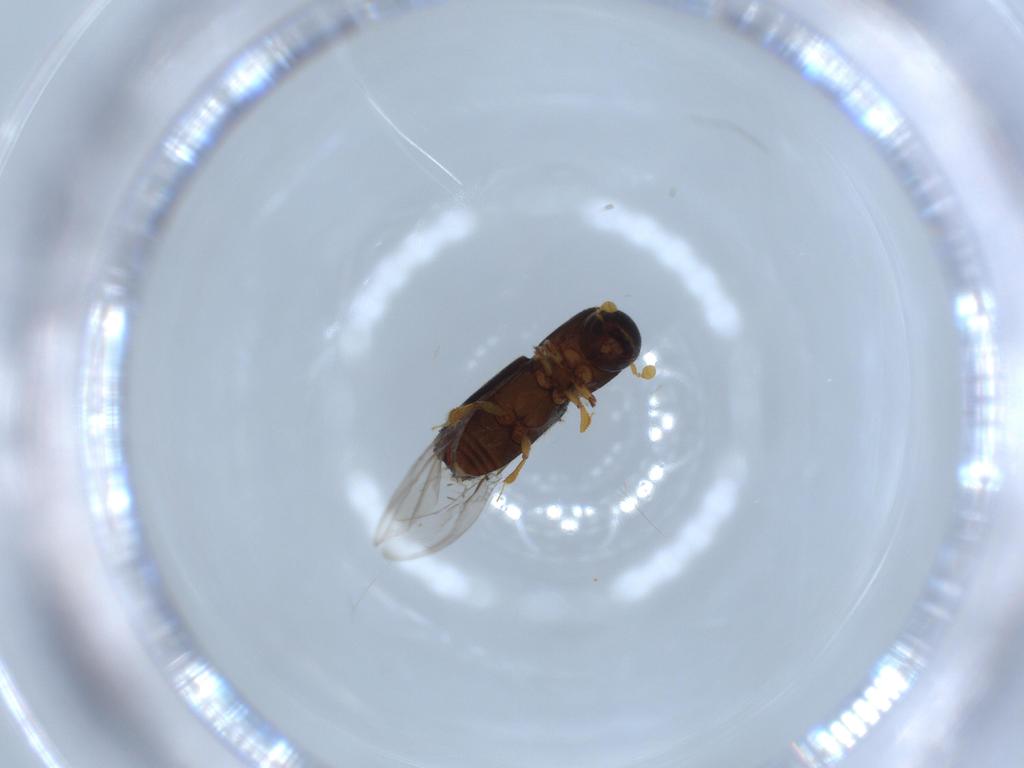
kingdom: Animalia
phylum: Arthropoda
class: Insecta
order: Coleoptera
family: Curculionidae
